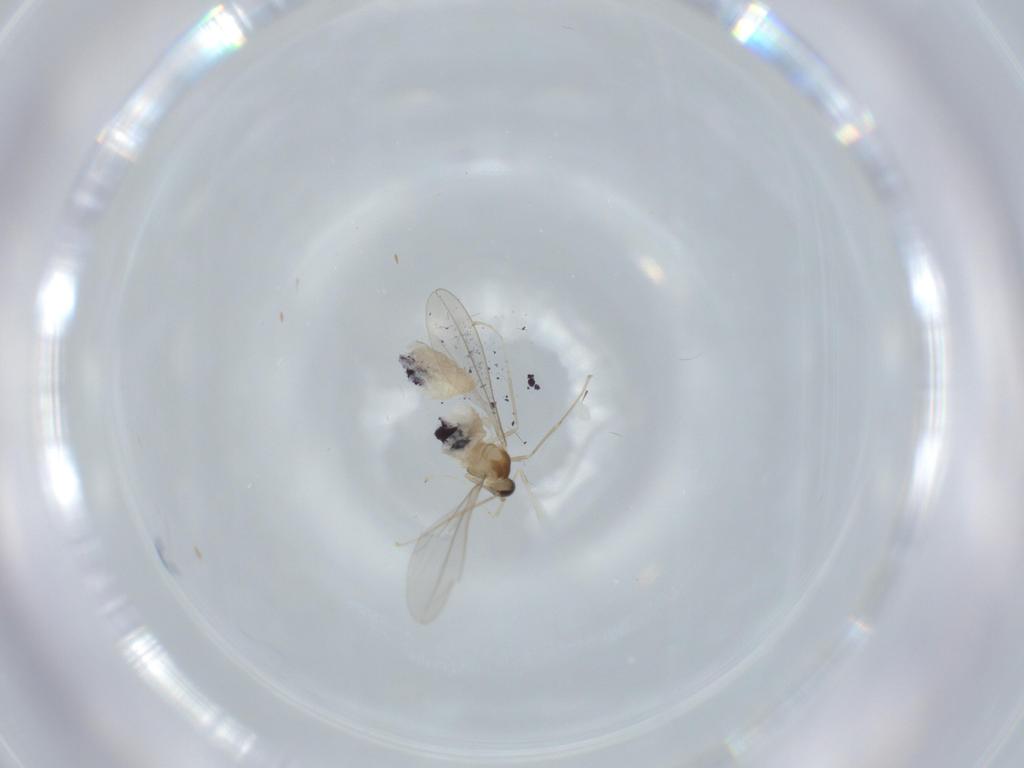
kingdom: Animalia
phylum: Arthropoda
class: Insecta
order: Diptera
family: Cecidomyiidae
